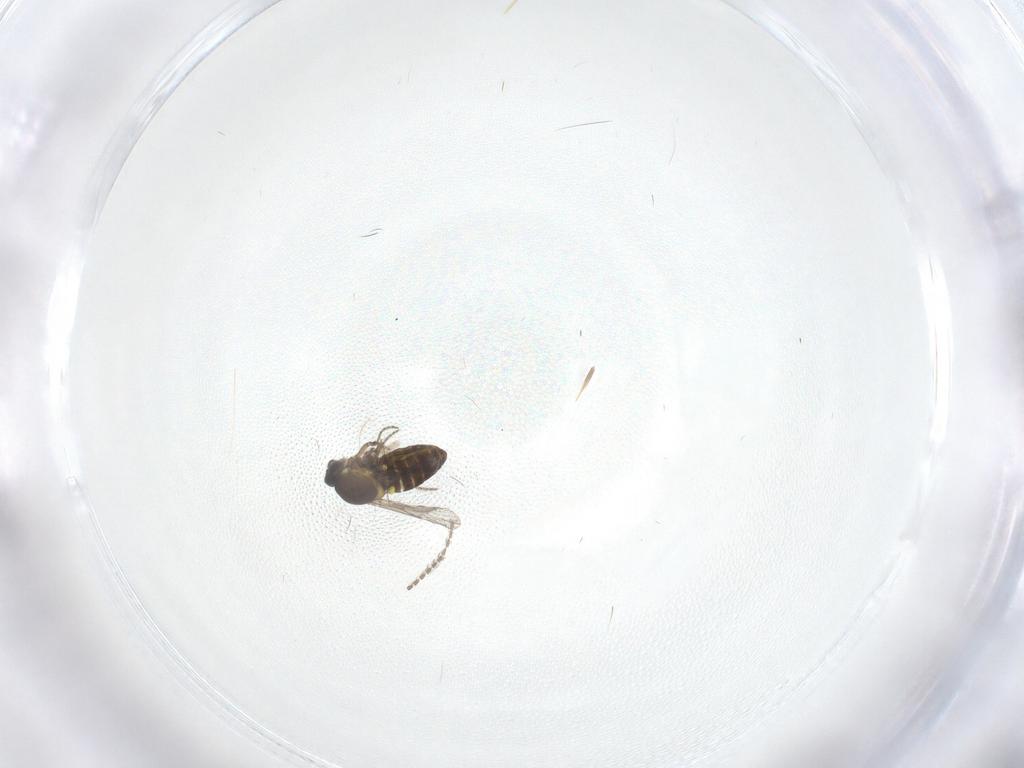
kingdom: Animalia
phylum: Arthropoda
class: Insecta
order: Diptera
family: Cecidomyiidae
